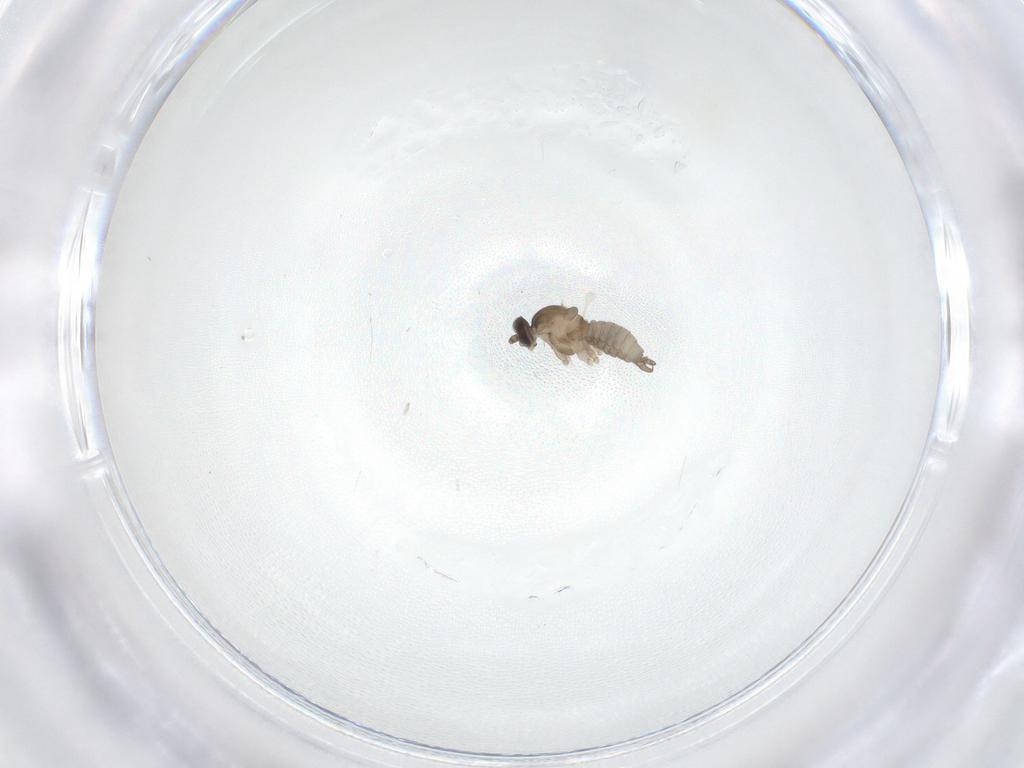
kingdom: Animalia
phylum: Arthropoda
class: Insecta
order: Diptera
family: Cecidomyiidae
